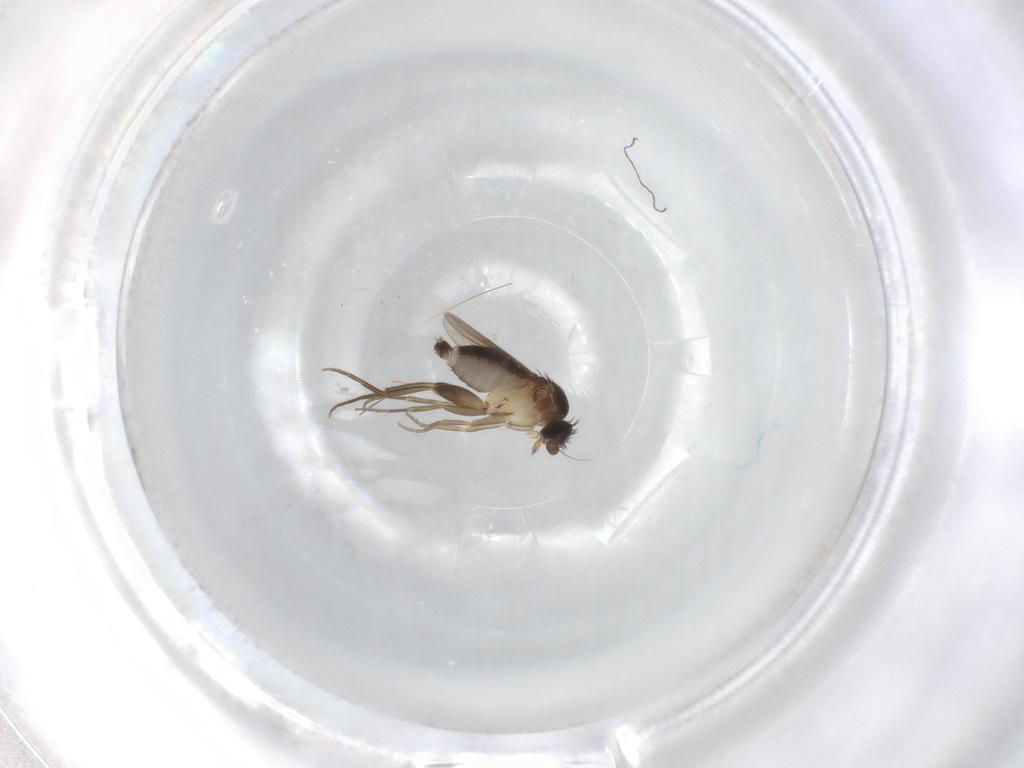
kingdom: Animalia
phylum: Arthropoda
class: Insecta
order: Diptera
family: Phoridae
